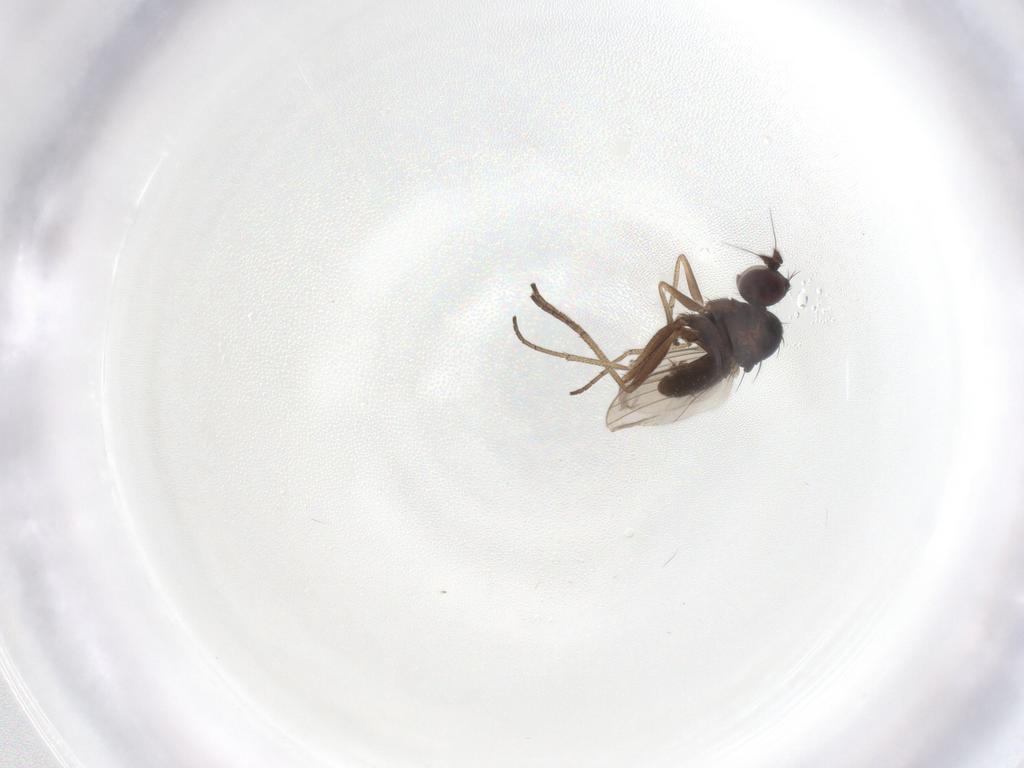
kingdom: Animalia
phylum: Arthropoda
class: Insecta
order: Diptera
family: Dolichopodidae
